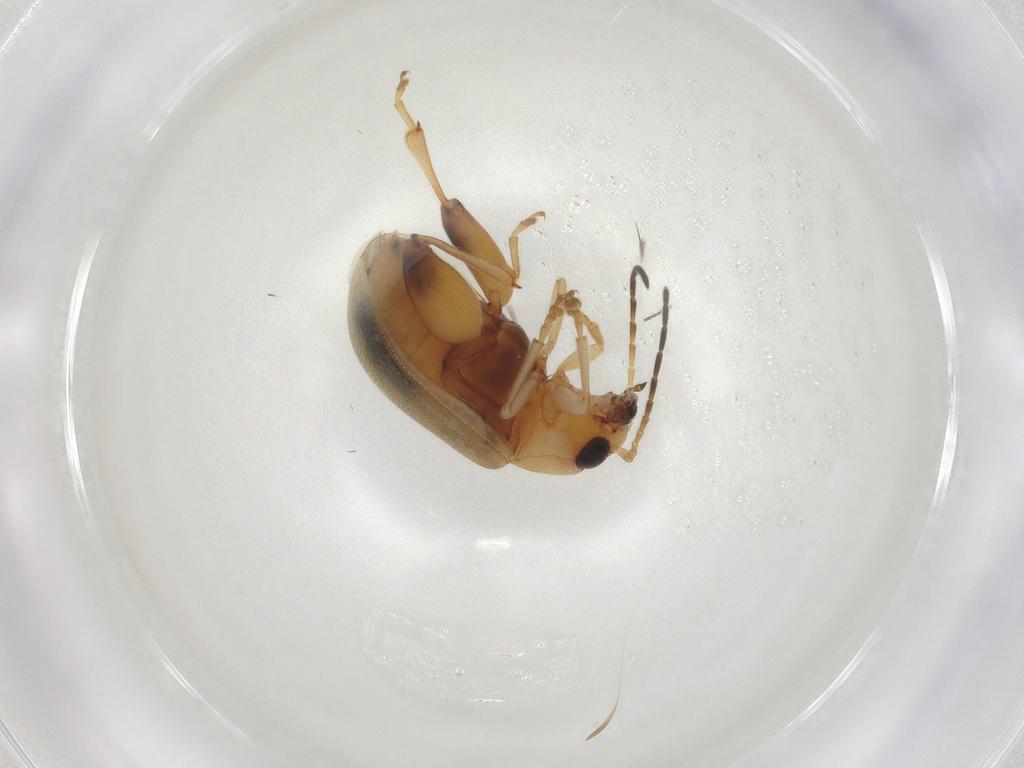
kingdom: Animalia
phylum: Arthropoda
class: Insecta
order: Coleoptera
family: Chrysomelidae
